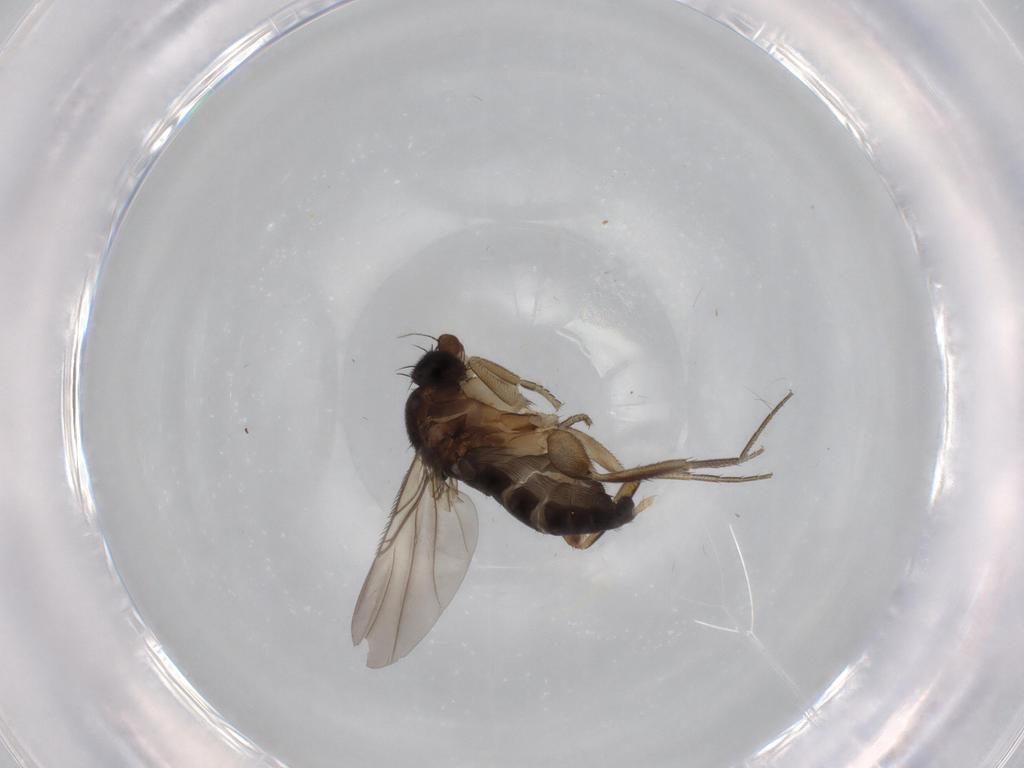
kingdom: Animalia
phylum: Arthropoda
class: Insecta
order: Diptera
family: Phoridae
